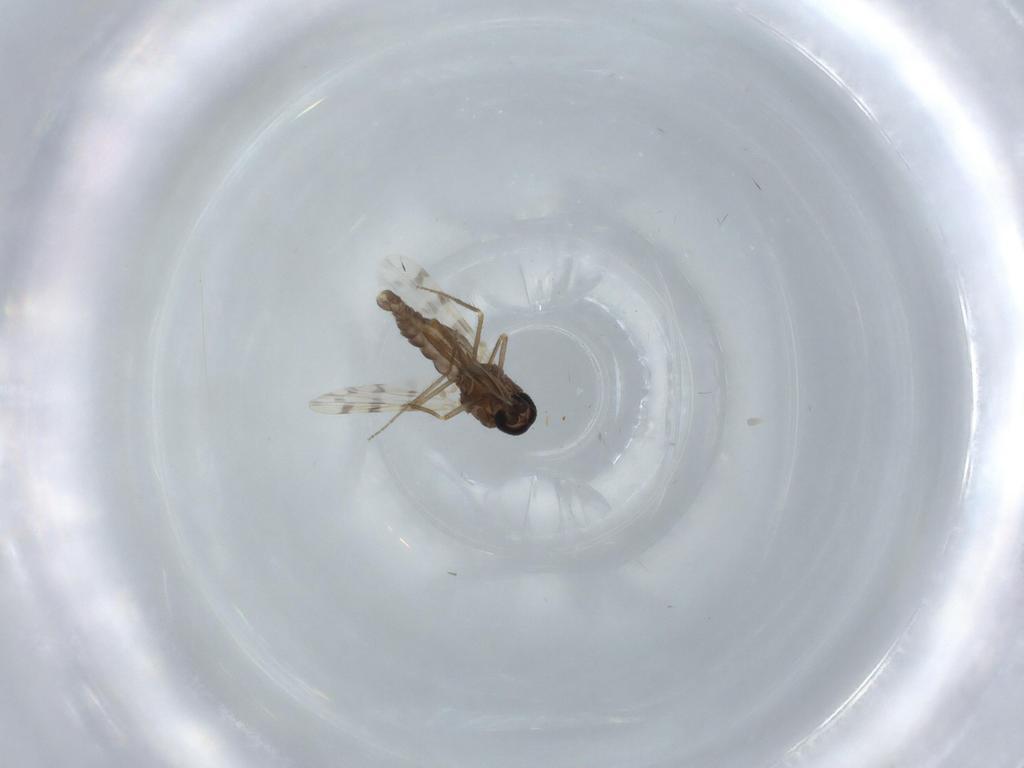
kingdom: Animalia
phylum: Arthropoda
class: Insecta
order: Diptera
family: Ceratopogonidae
